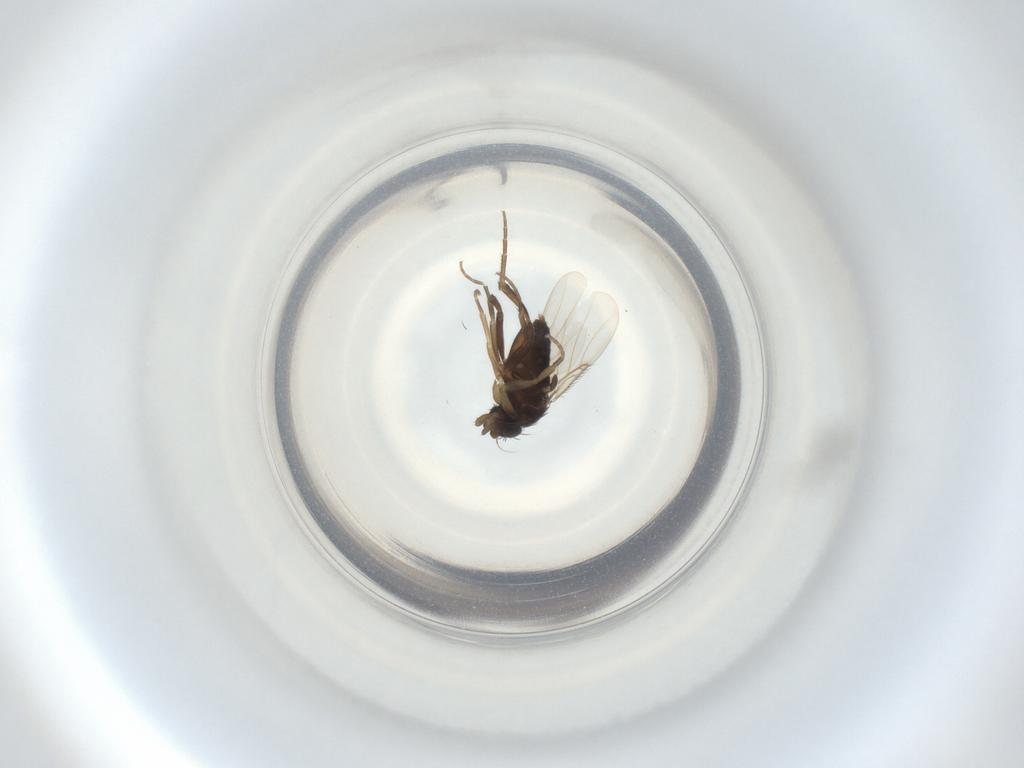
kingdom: Animalia
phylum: Arthropoda
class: Insecta
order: Diptera
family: Phoridae
